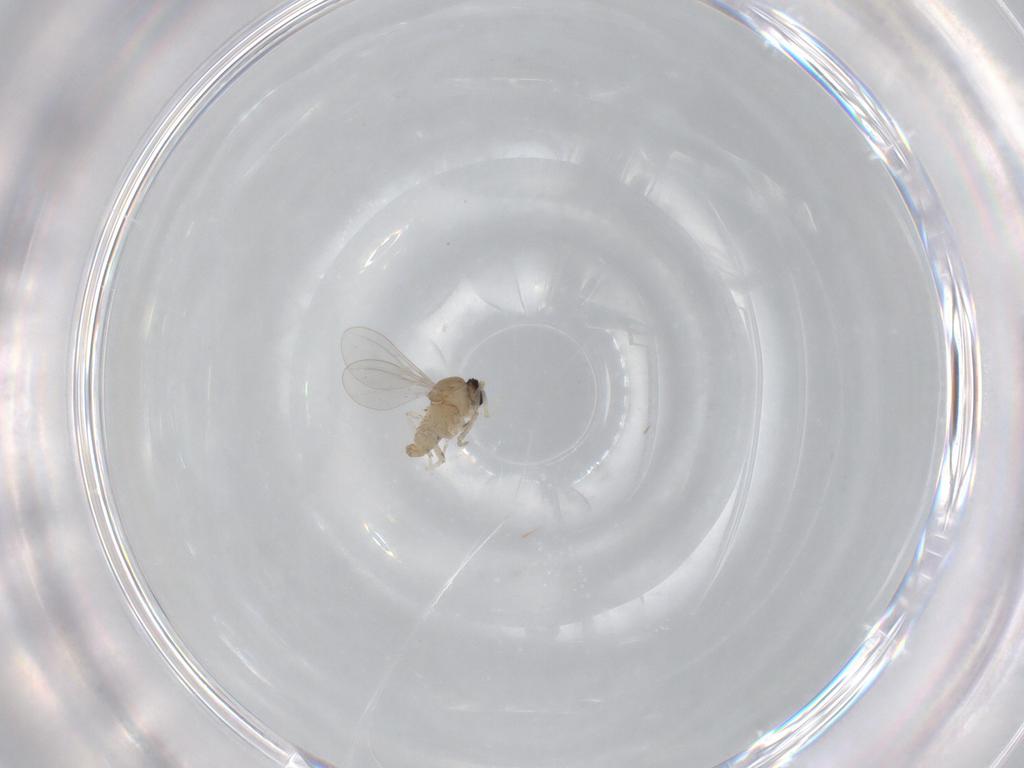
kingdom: Animalia
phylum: Arthropoda
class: Insecta
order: Diptera
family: Cecidomyiidae
